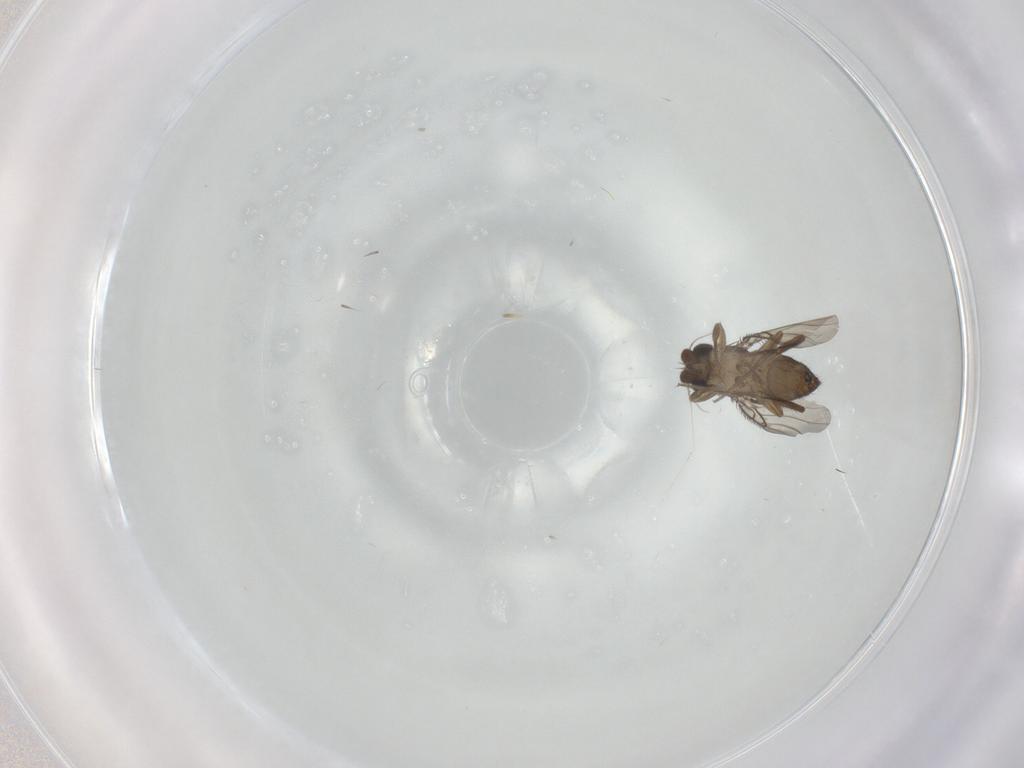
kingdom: Animalia
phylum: Arthropoda
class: Insecta
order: Diptera
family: Phoridae
